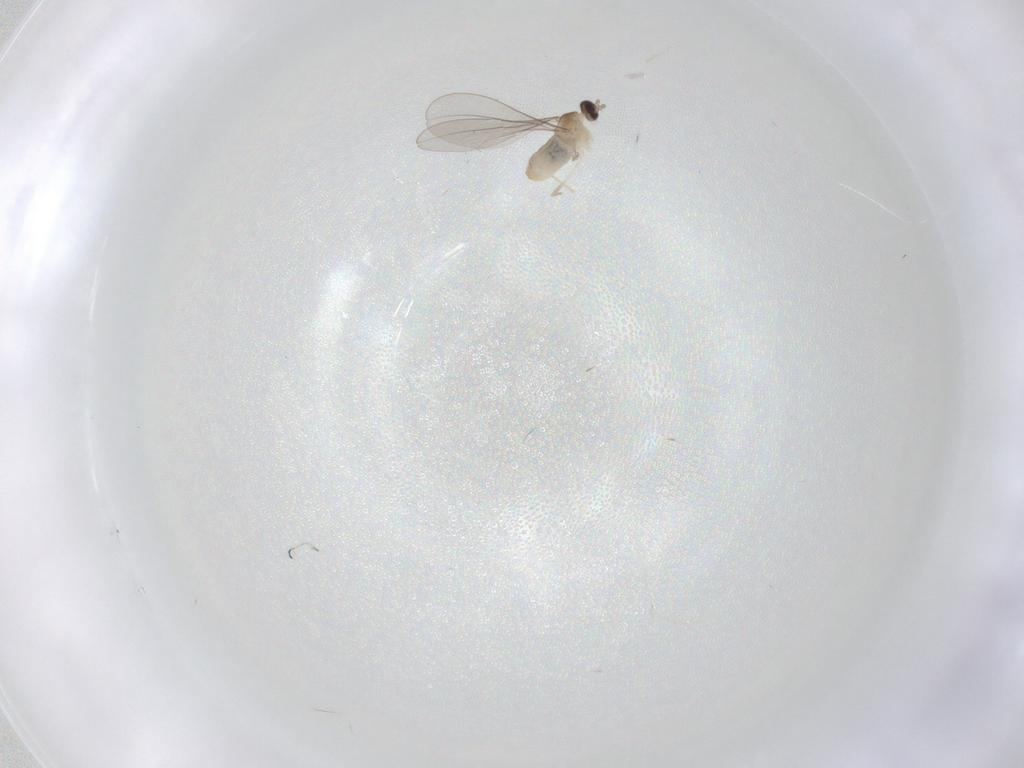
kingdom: Animalia
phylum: Arthropoda
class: Insecta
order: Diptera
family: Cecidomyiidae
